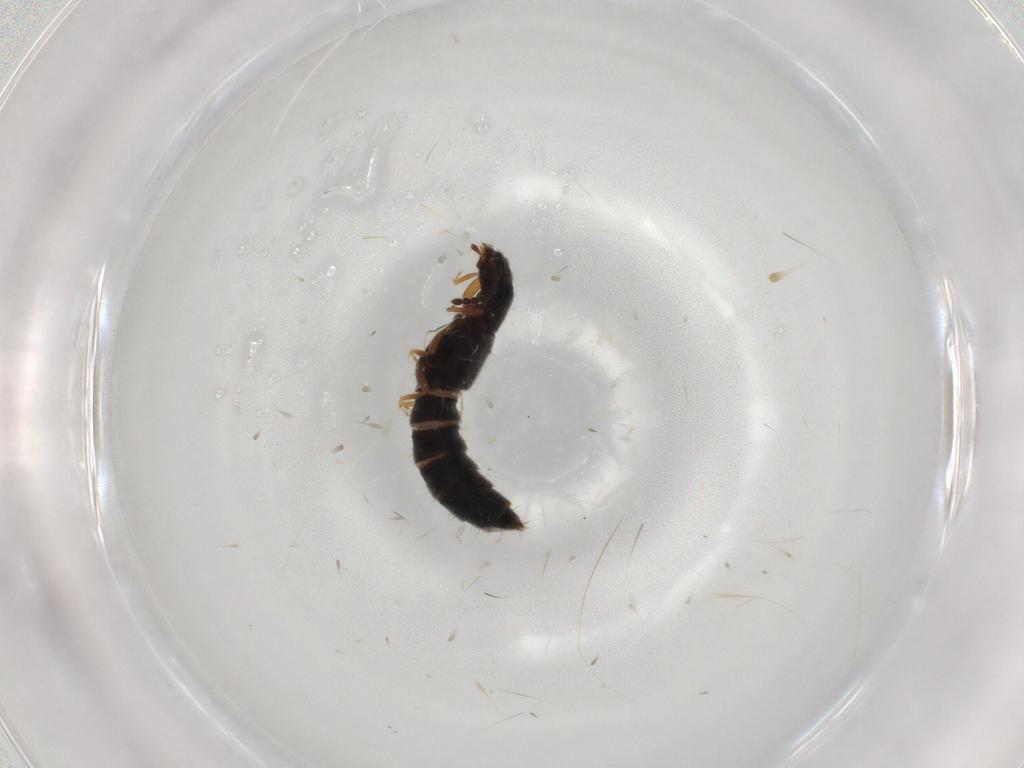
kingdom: Animalia
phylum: Arthropoda
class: Insecta
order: Coleoptera
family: Staphylinidae
